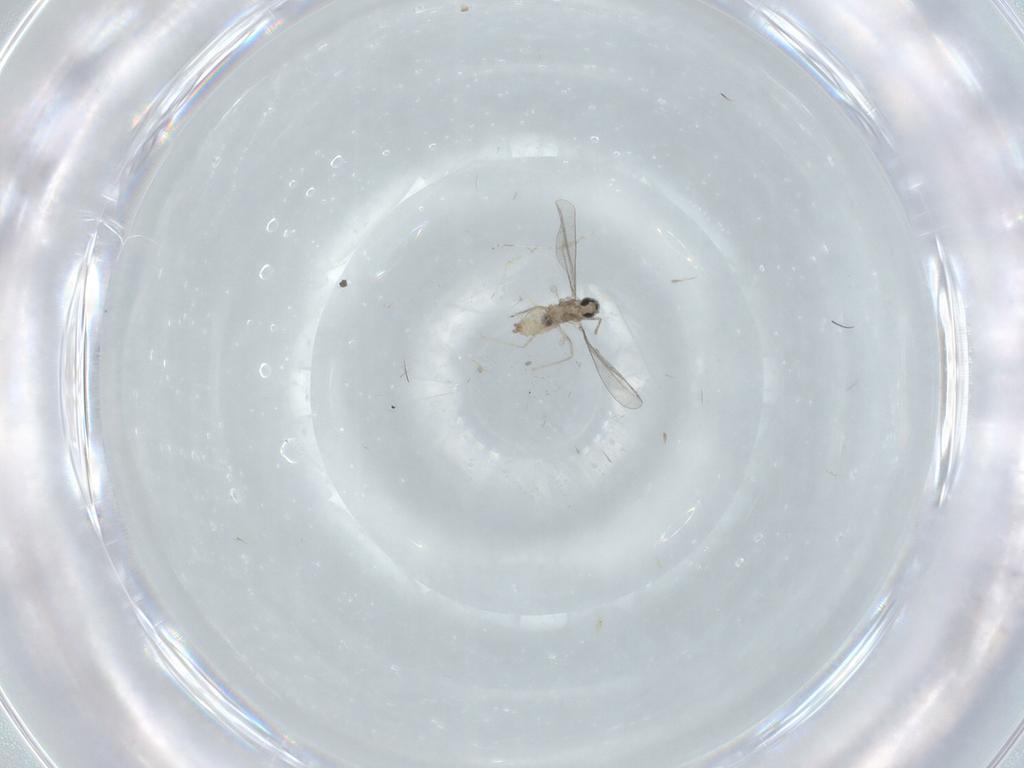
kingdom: Animalia
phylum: Arthropoda
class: Insecta
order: Diptera
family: Cecidomyiidae
